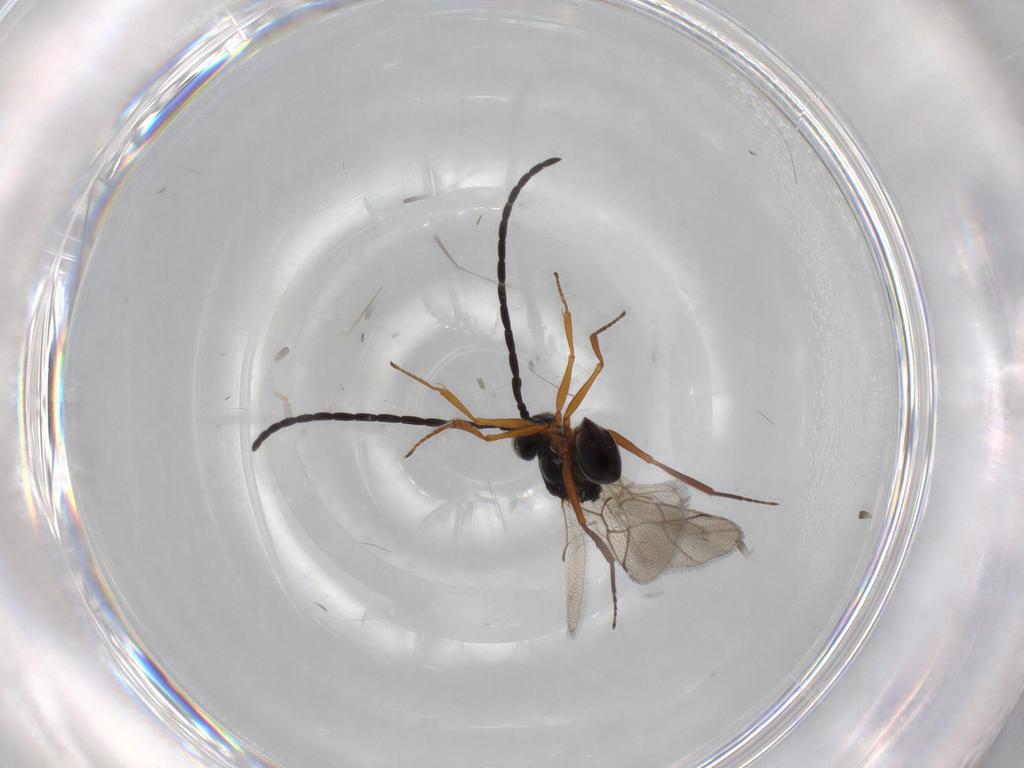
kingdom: Animalia
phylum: Arthropoda
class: Insecta
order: Hymenoptera
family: Figitidae
